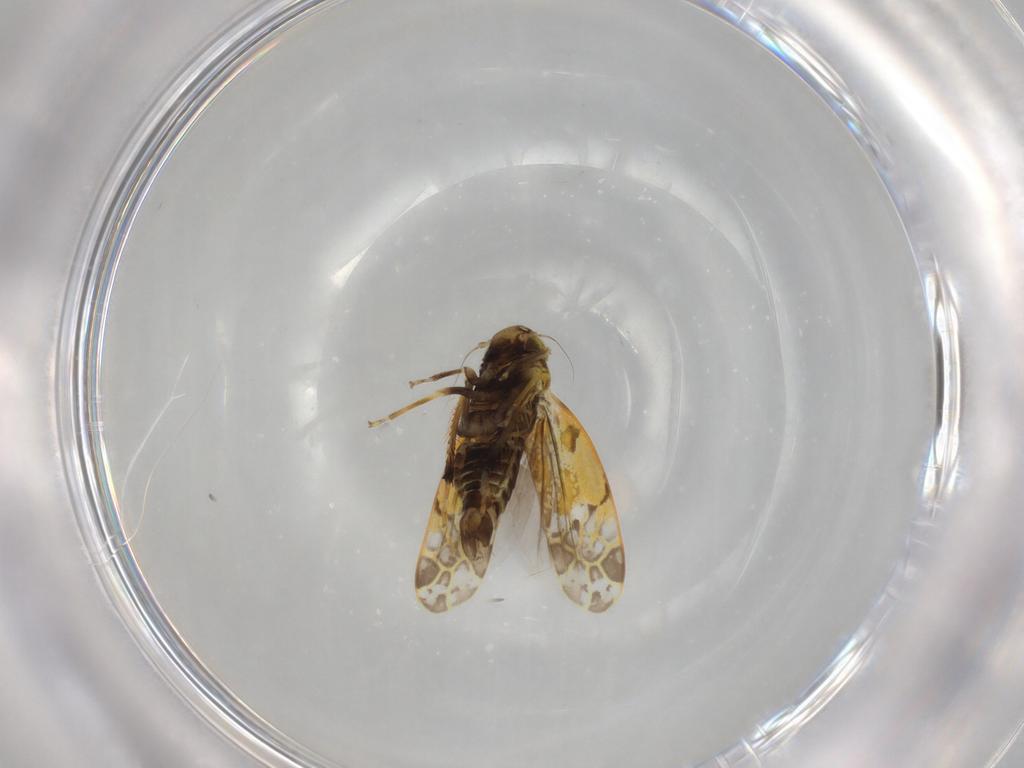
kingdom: Animalia
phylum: Arthropoda
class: Insecta
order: Hemiptera
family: Cicadellidae
